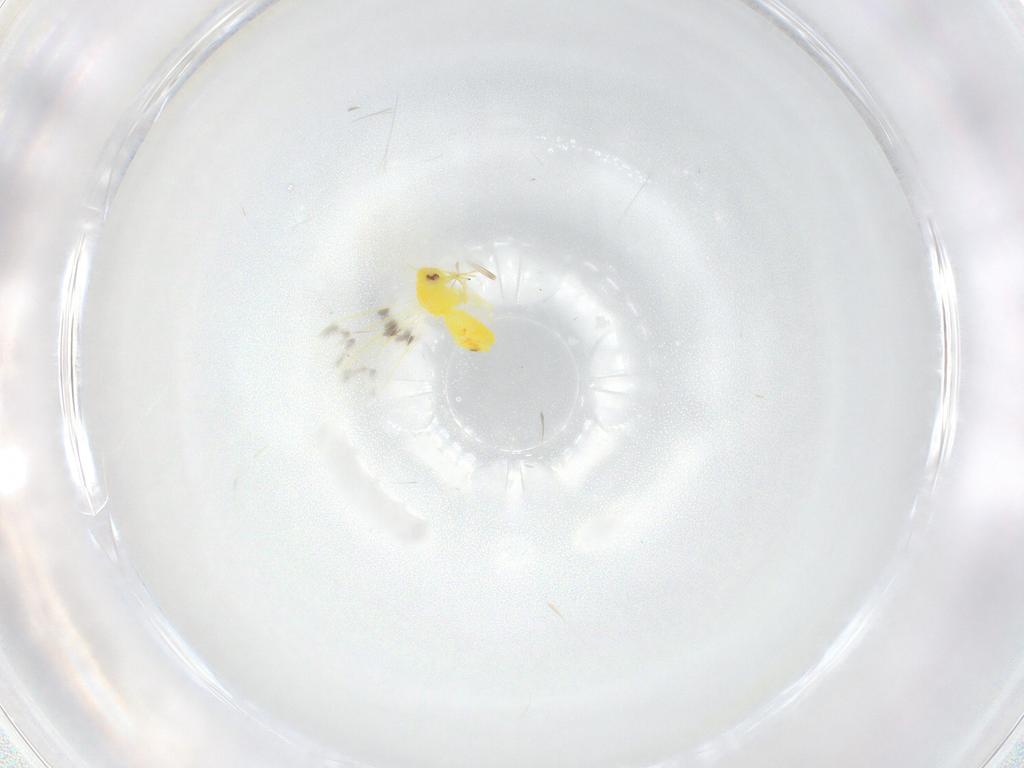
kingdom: Animalia
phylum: Arthropoda
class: Insecta
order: Hemiptera
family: Aleyrodidae
